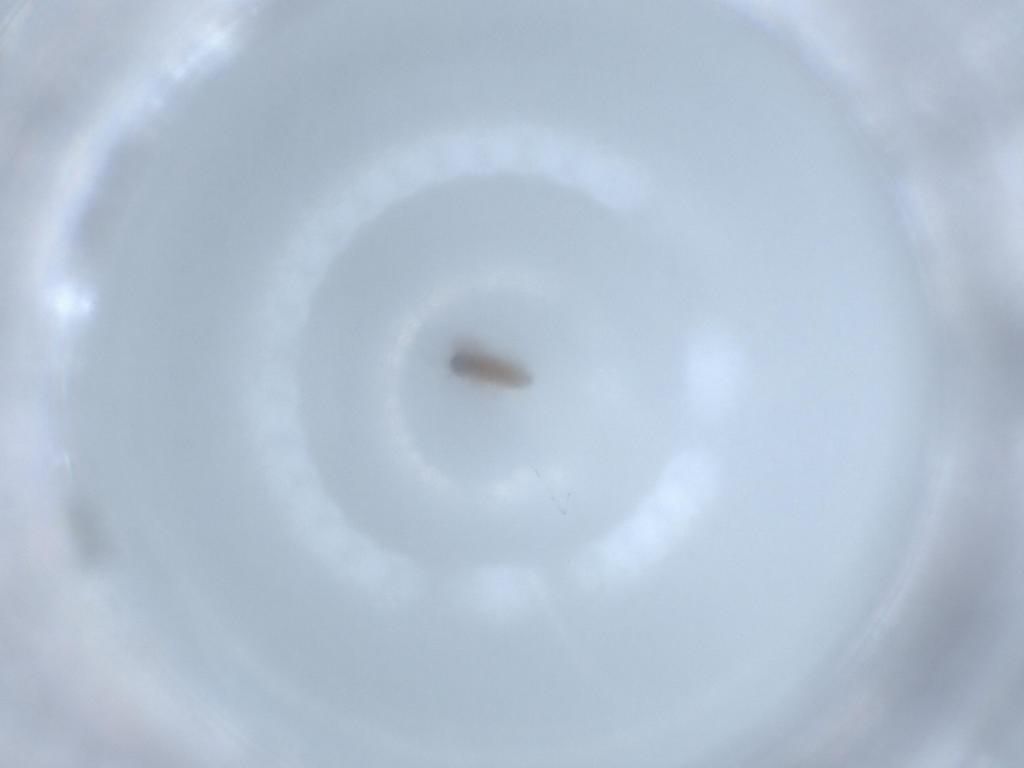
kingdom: Animalia
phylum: Arthropoda
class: Insecta
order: Diptera
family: Cecidomyiidae
